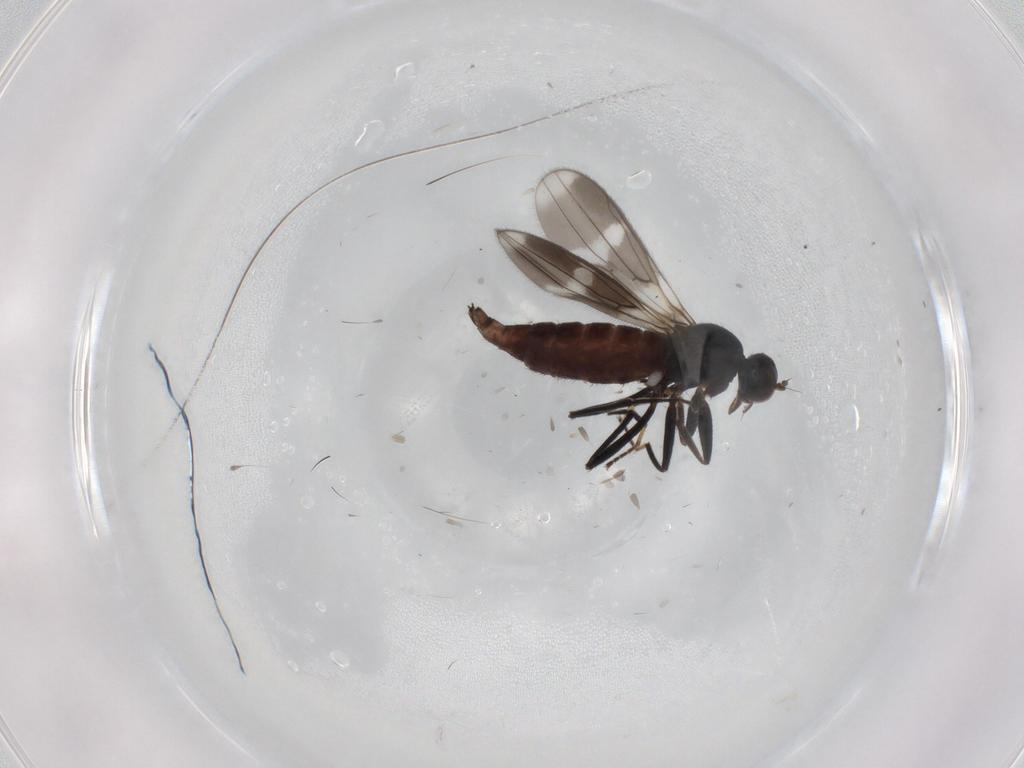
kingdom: Animalia
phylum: Arthropoda
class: Insecta
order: Diptera
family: Hybotidae
